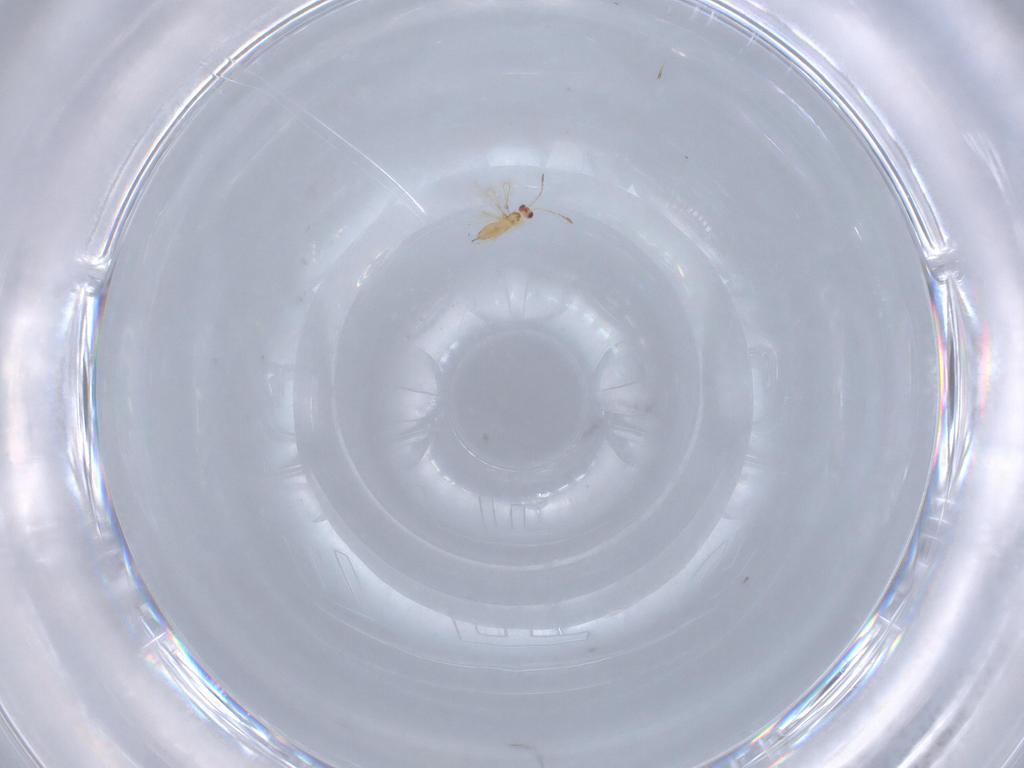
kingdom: Animalia
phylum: Arthropoda
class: Insecta
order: Hymenoptera
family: Mymaridae
